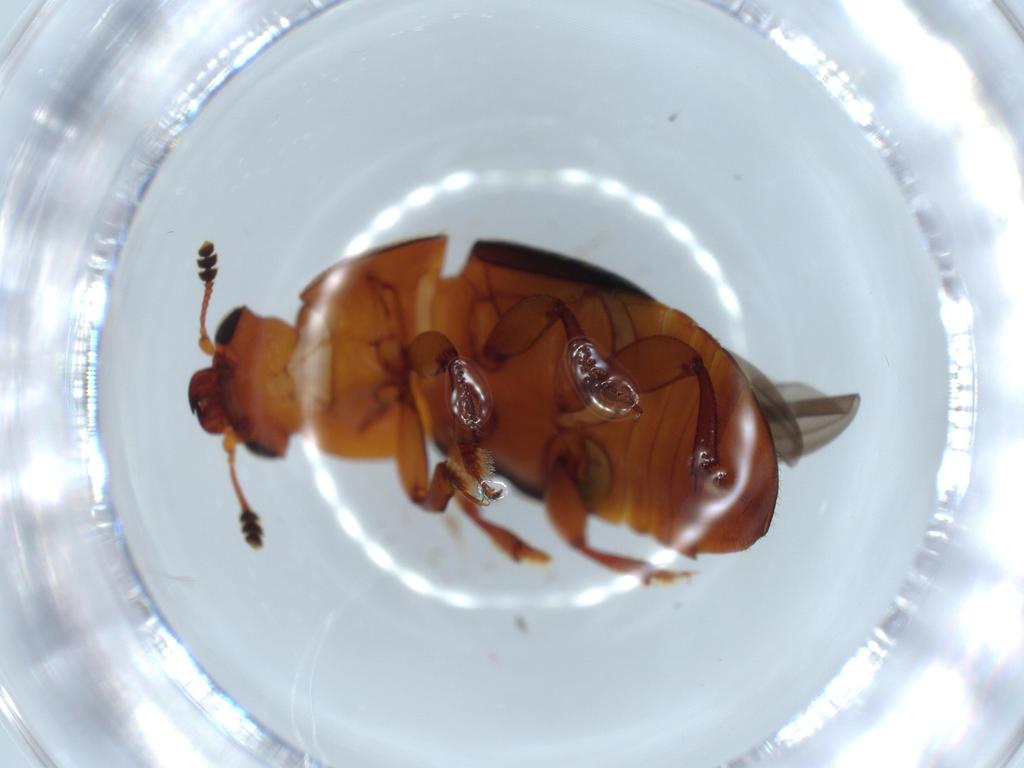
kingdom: Animalia
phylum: Arthropoda
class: Insecta
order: Coleoptera
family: Nitidulidae
